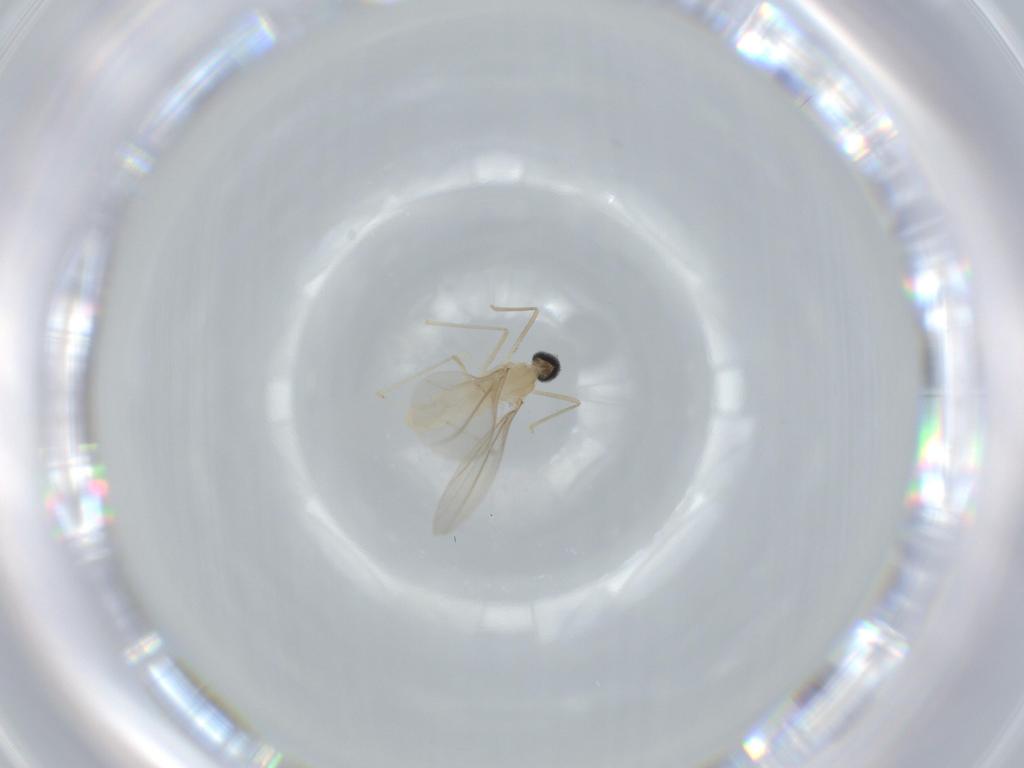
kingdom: Animalia
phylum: Arthropoda
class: Insecta
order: Diptera
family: Cecidomyiidae
